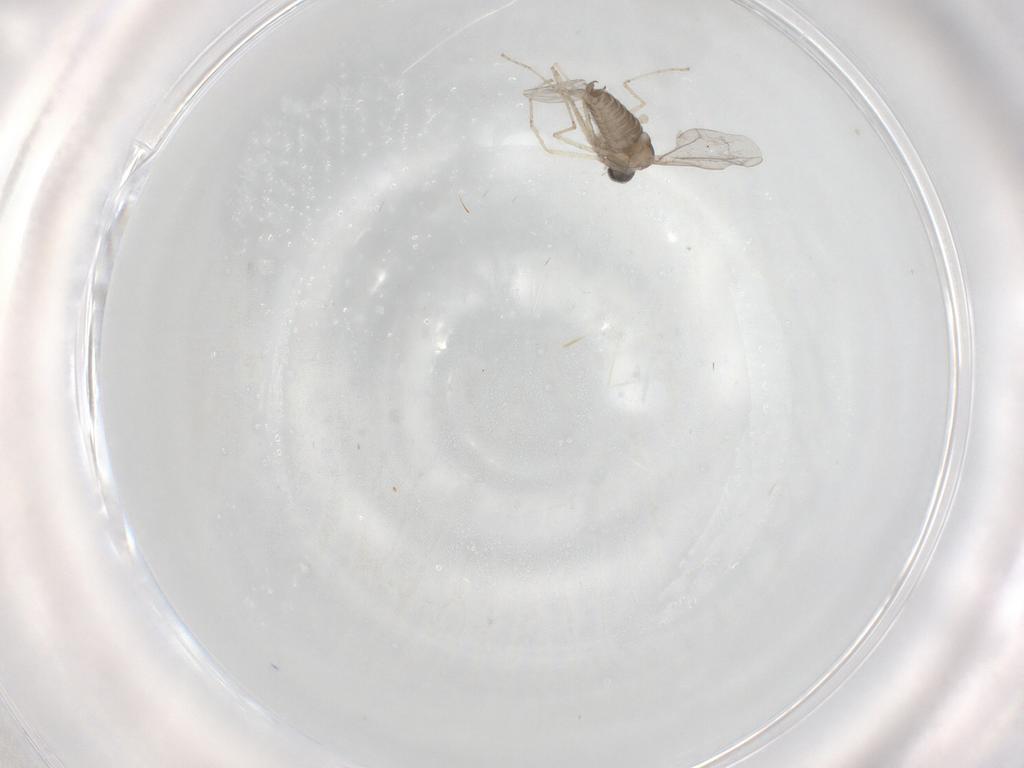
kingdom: Animalia
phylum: Arthropoda
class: Insecta
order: Diptera
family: Cecidomyiidae
